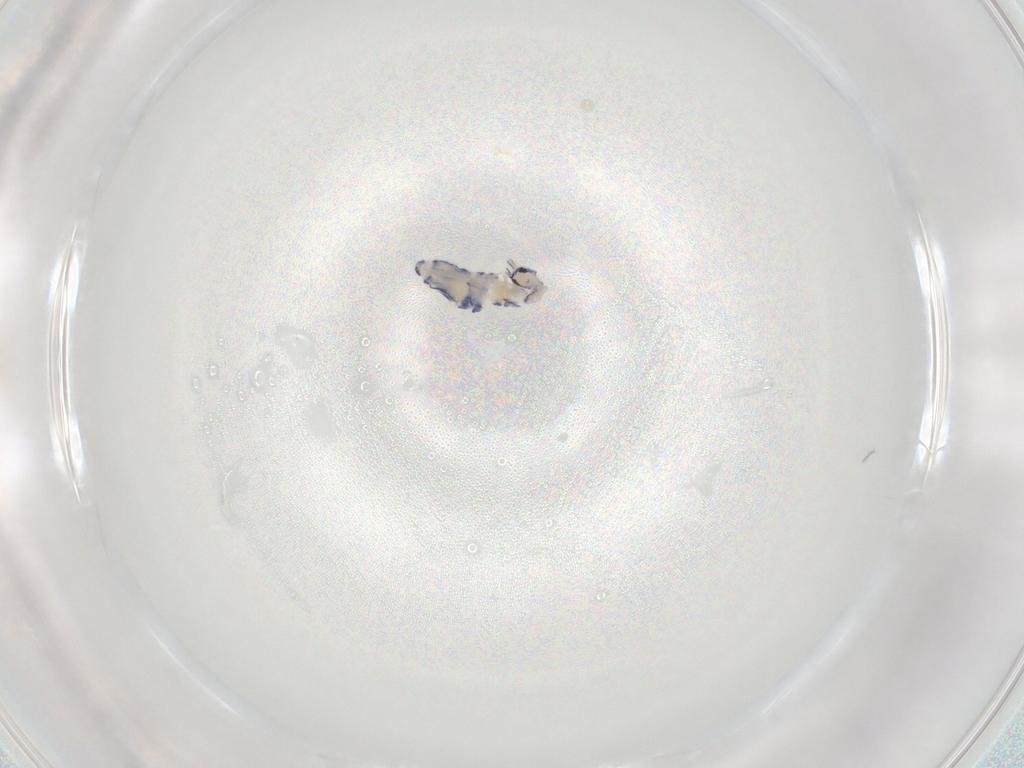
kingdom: Animalia
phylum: Arthropoda
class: Collembola
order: Entomobryomorpha
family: Entomobryidae
